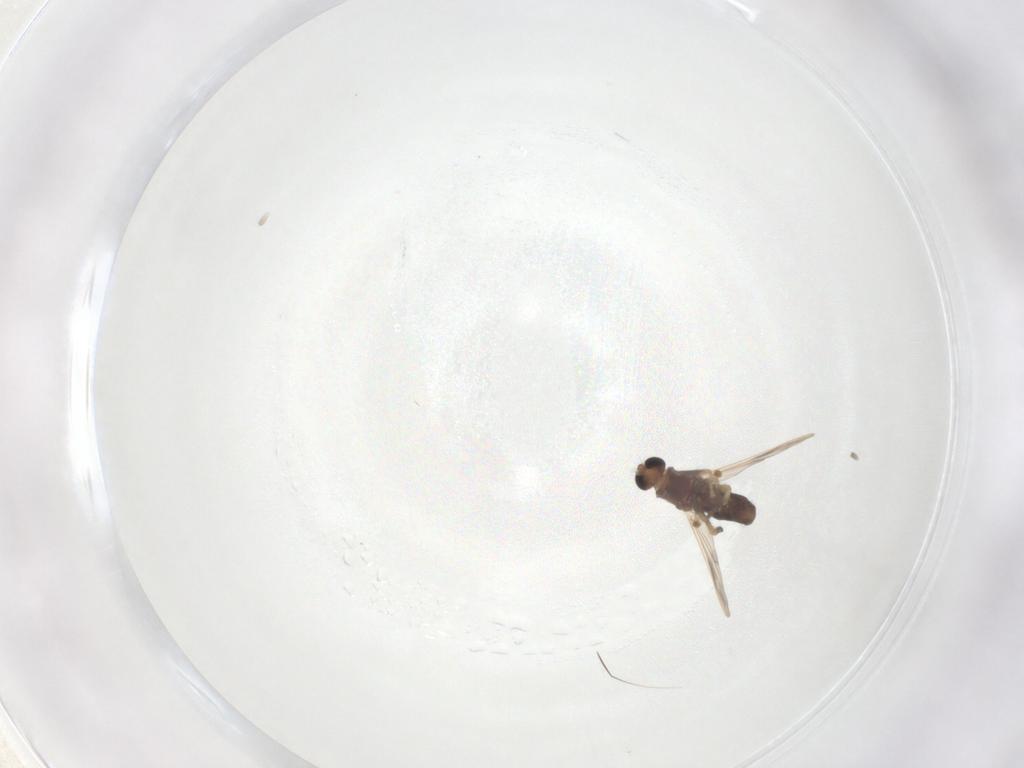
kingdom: Animalia
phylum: Arthropoda
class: Insecta
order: Diptera
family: Chironomidae
